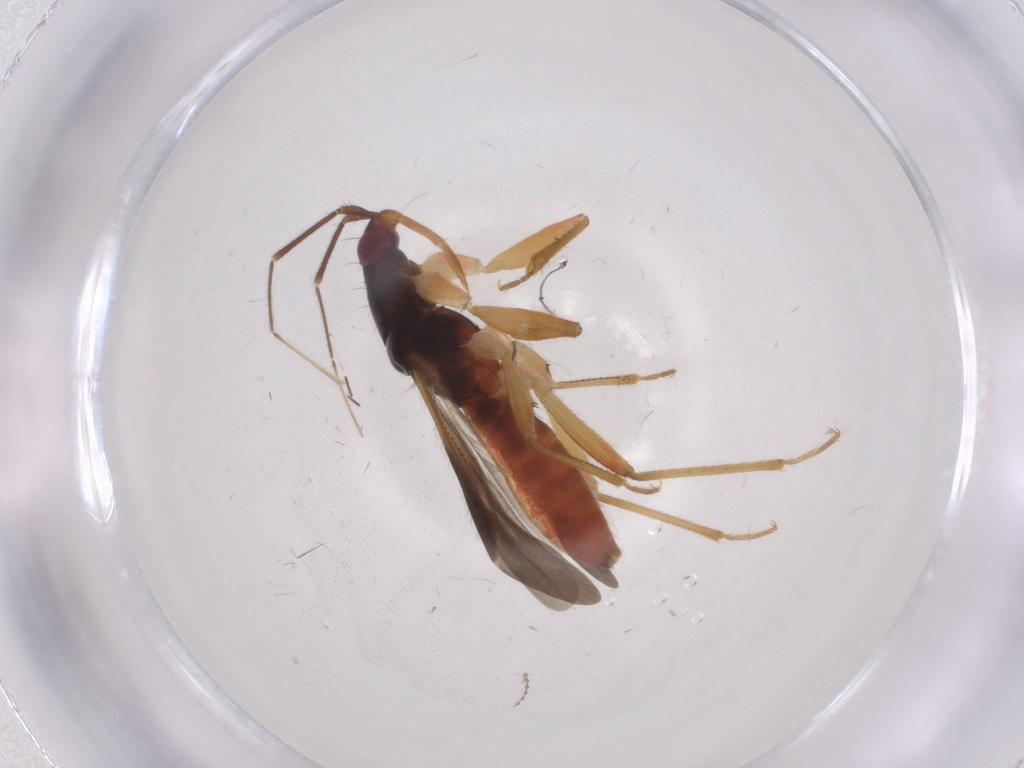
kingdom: Animalia
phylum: Arthropoda
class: Insecta
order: Hemiptera
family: Nabidae
